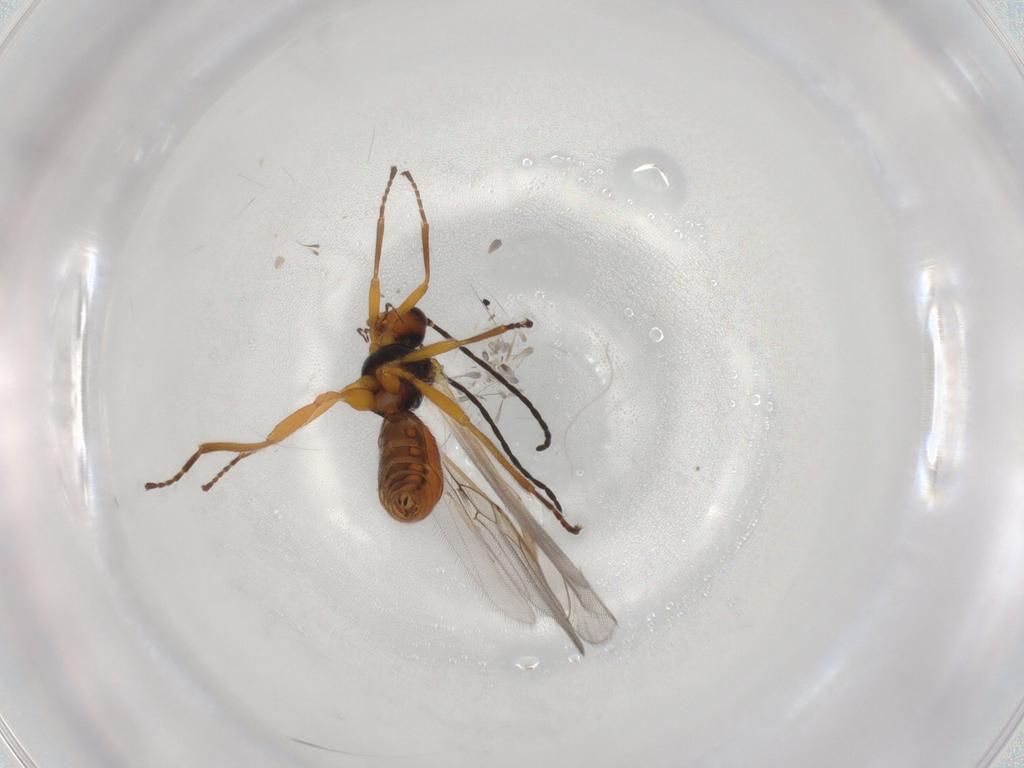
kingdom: Animalia
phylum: Arthropoda
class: Insecta
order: Hymenoptera
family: Braconidae
